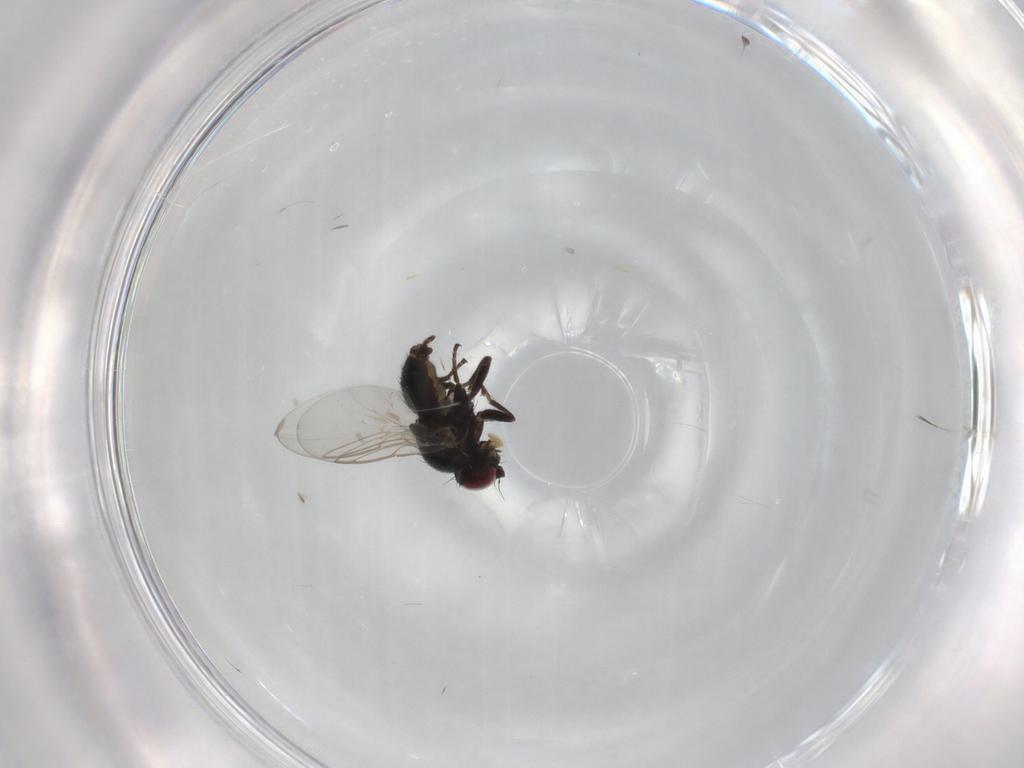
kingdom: Animalia
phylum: Arthropoda
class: Insecta
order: Diptera
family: Agromyzidae
